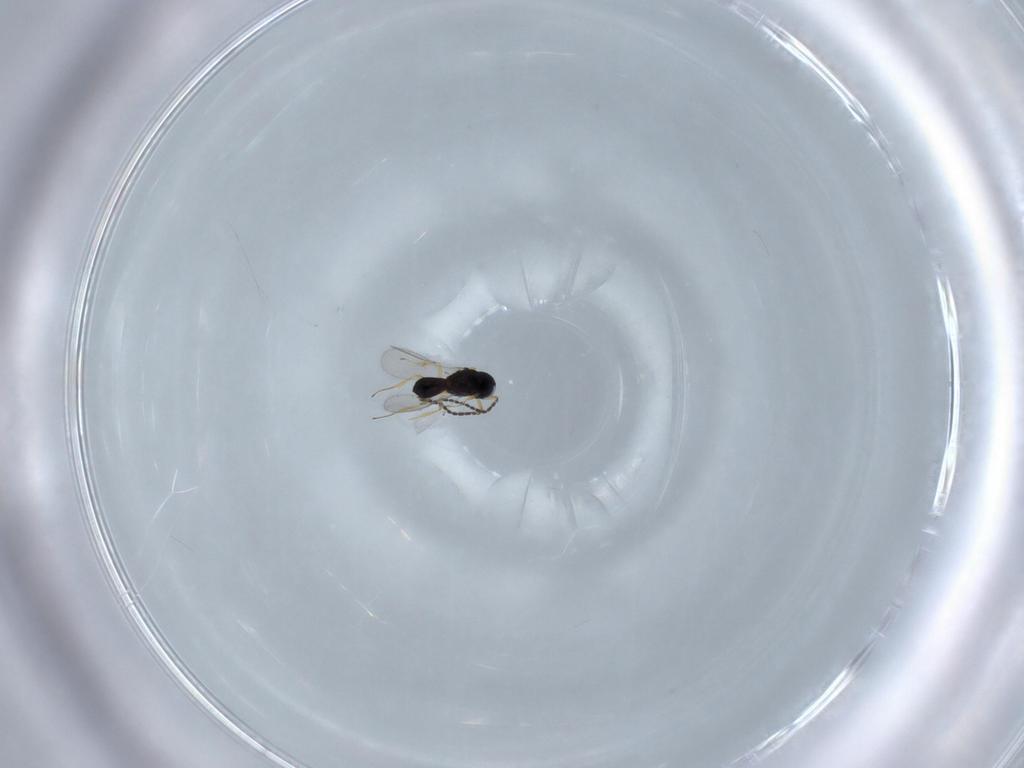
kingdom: Animalia
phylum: Arthropoda
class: Insecta
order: Hymenoptera
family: Scelionidae
